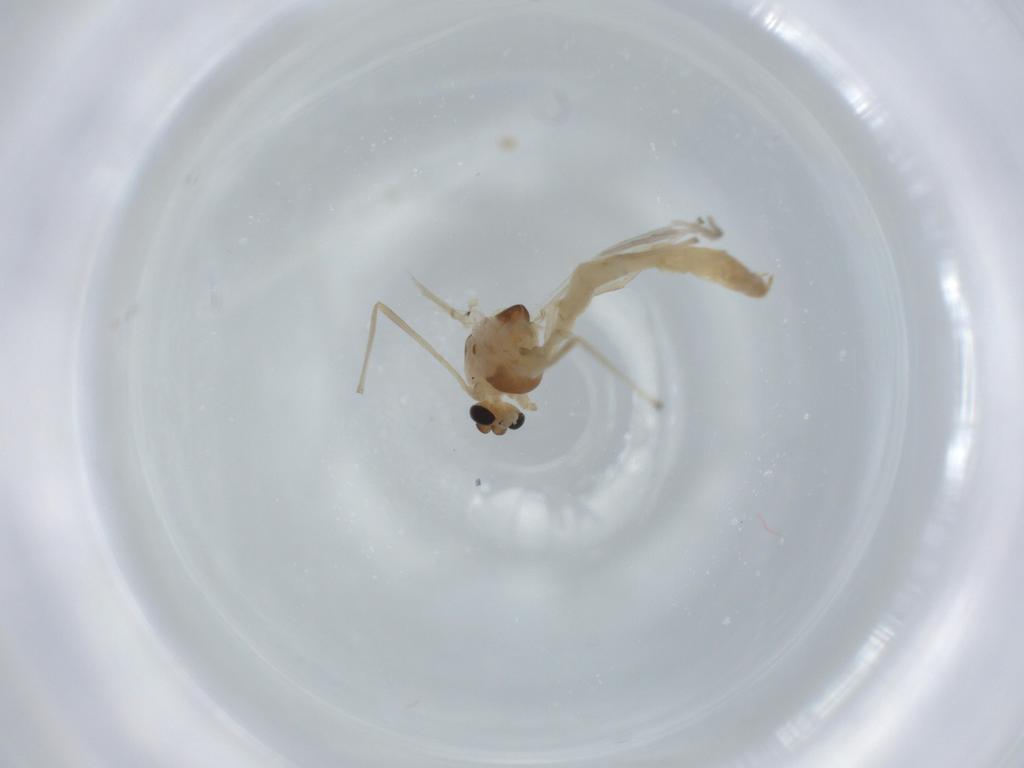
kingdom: Animalia
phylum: Arthropoda
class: Insecta
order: Diptera
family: Chironomidae
